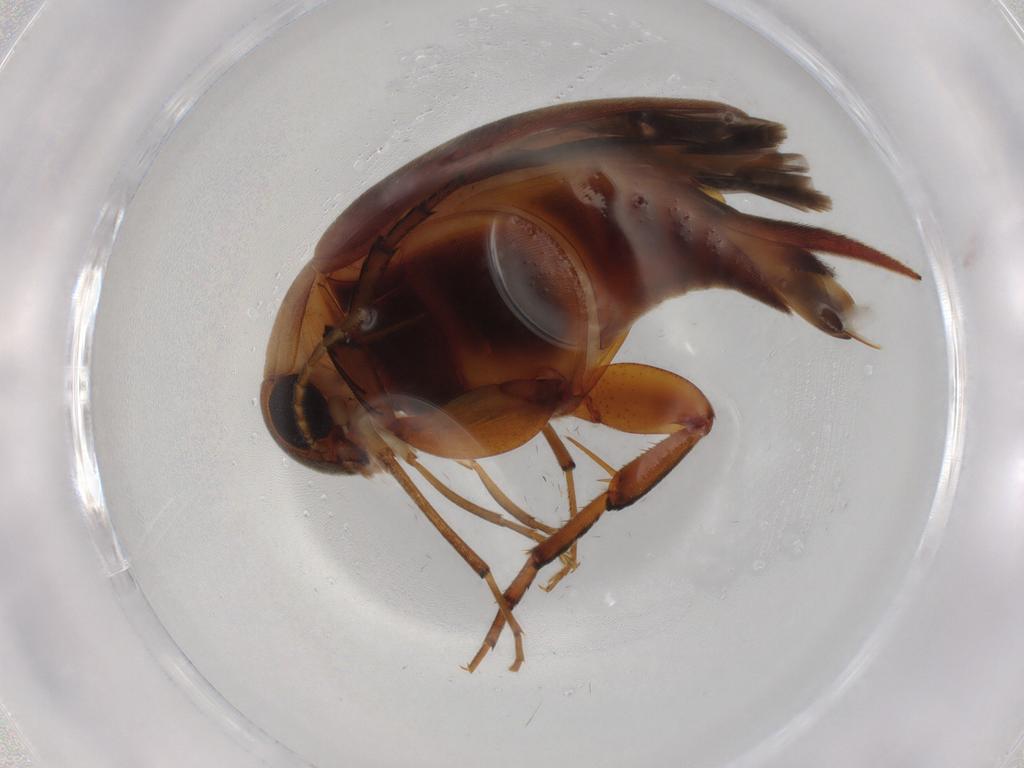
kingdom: Animalia
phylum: Arthropoda
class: Insecta
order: Coleoptera
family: Mordellidae
